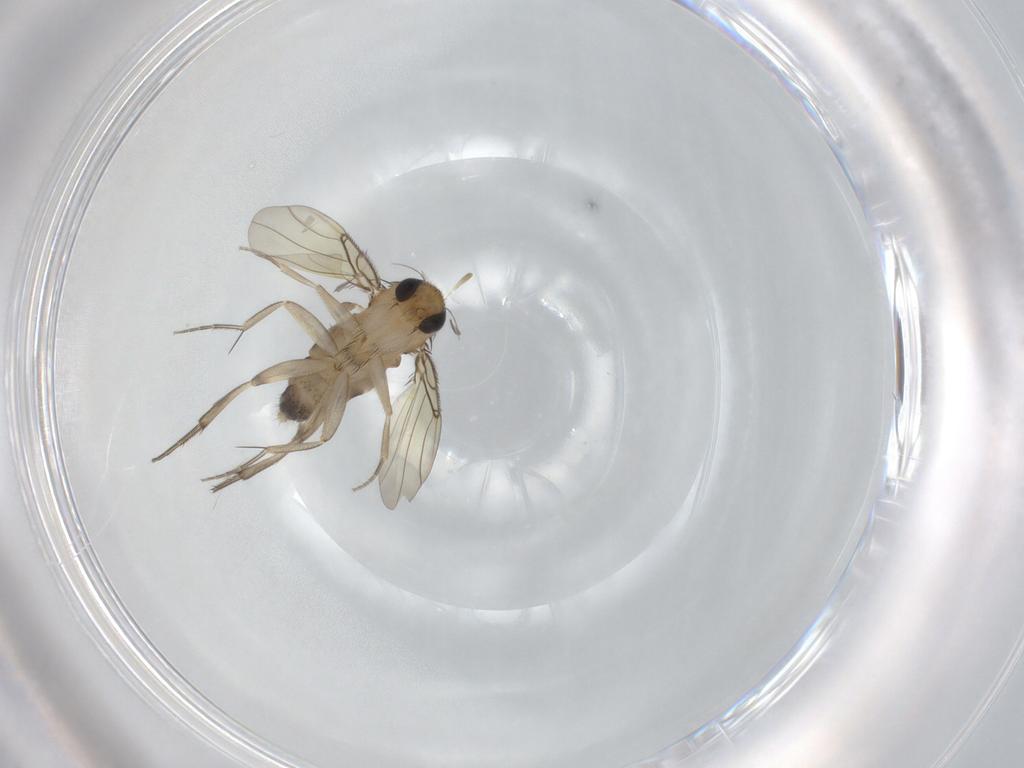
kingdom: Animalia
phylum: Arthropoda
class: Insecta
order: Diptera
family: Phoridae
